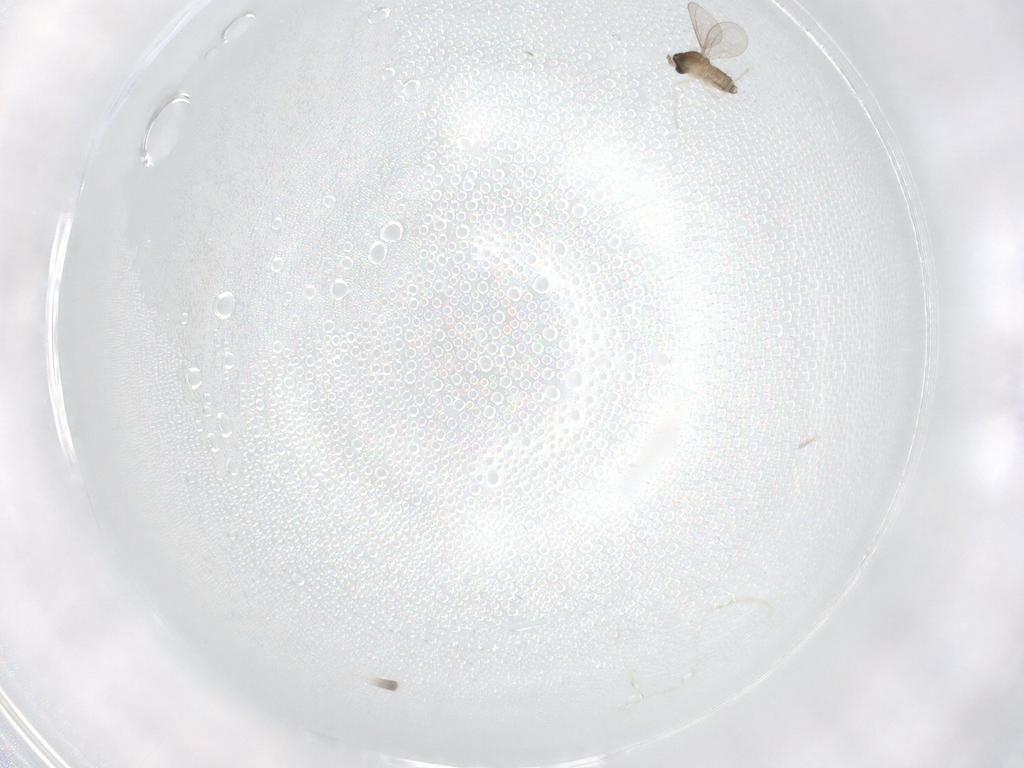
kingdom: Animalia
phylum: Arthropoda
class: Insecta
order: Diptera
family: Cecidomyiidae
